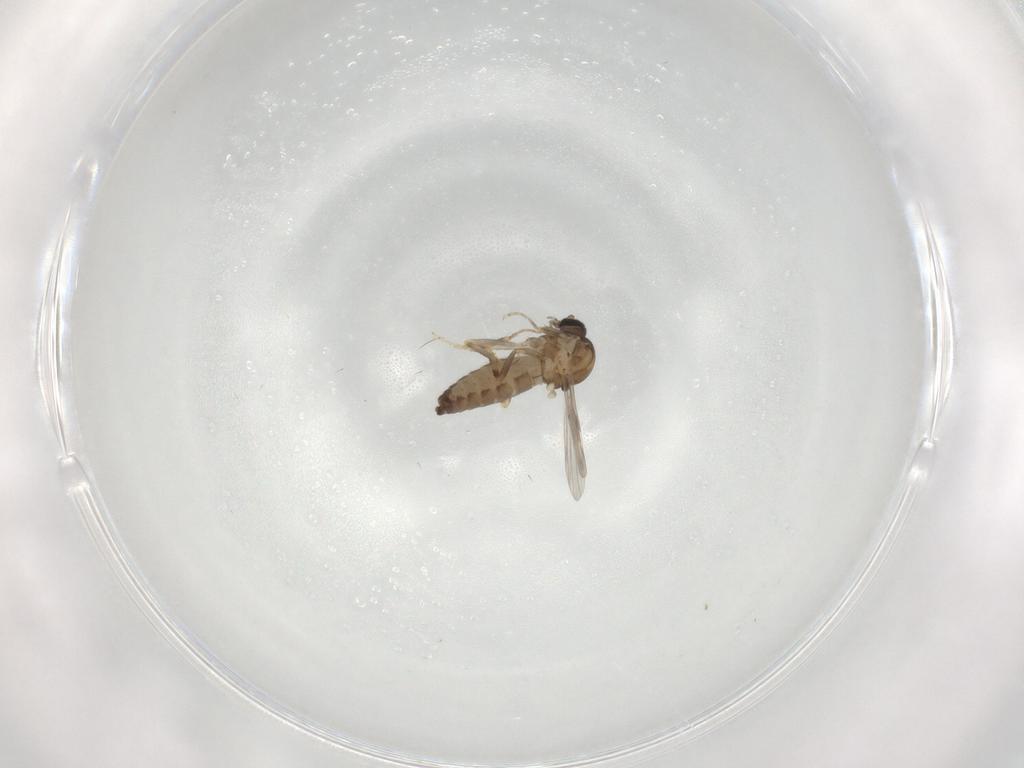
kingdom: Animalia
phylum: Arthropoda
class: Insecta
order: Diptera
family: Ceratopogonidae
